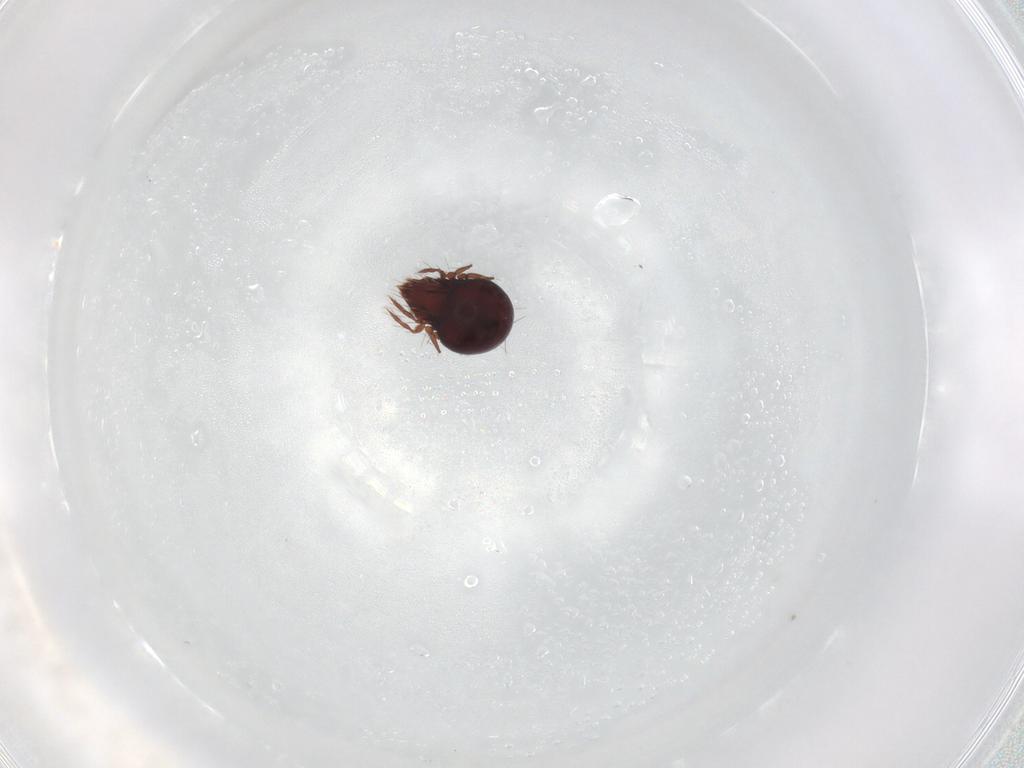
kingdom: Animalia
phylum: Arthropoda
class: Arachnida
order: Sarcoptiformes
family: Ceratoppiidae
